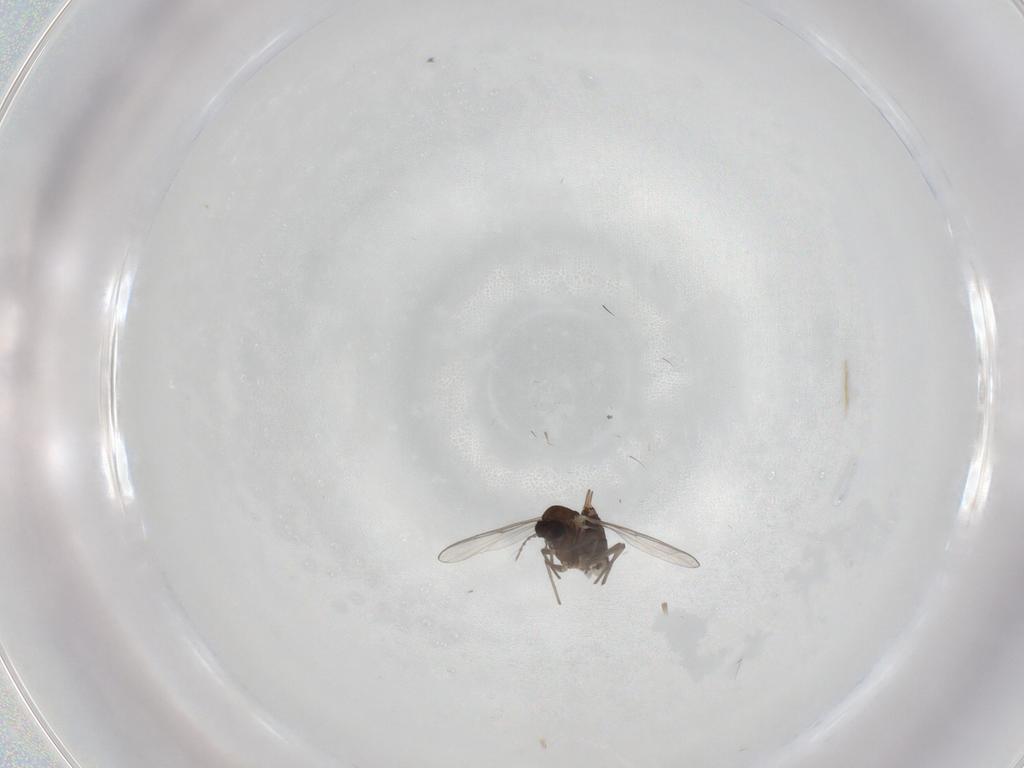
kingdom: Animalia
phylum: Arthropoda
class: Insecta
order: Diptera
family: Chironomidae
